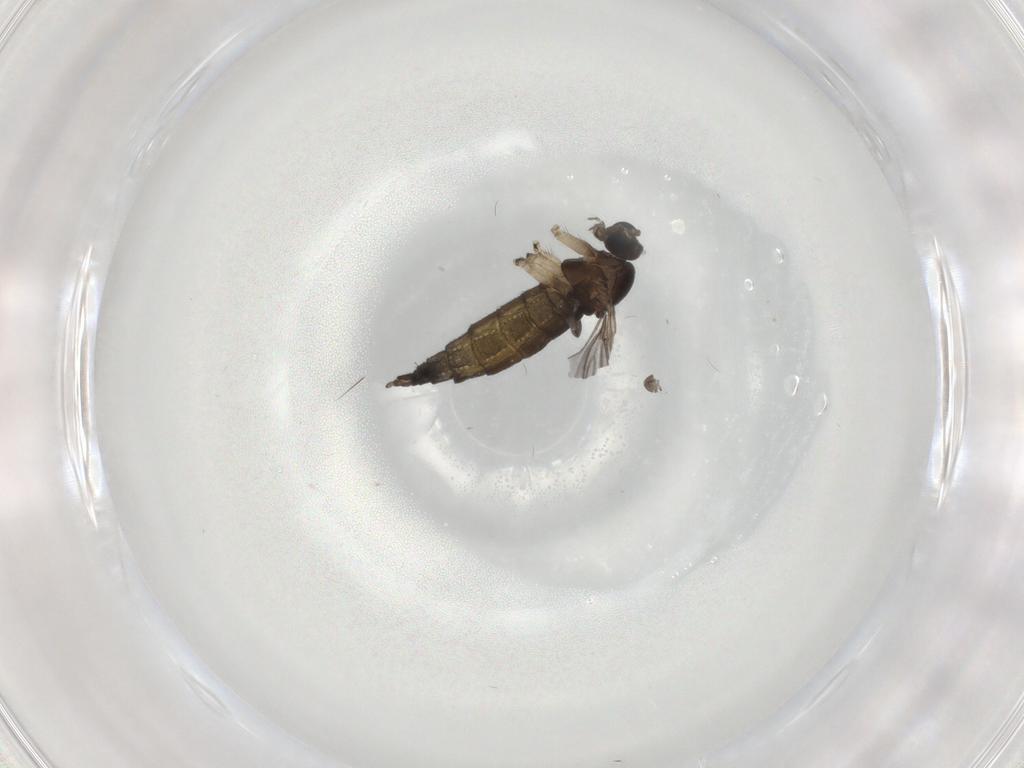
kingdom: Animalia
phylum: Arthropoda
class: Insecta
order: Diptera
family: Sciaridae
